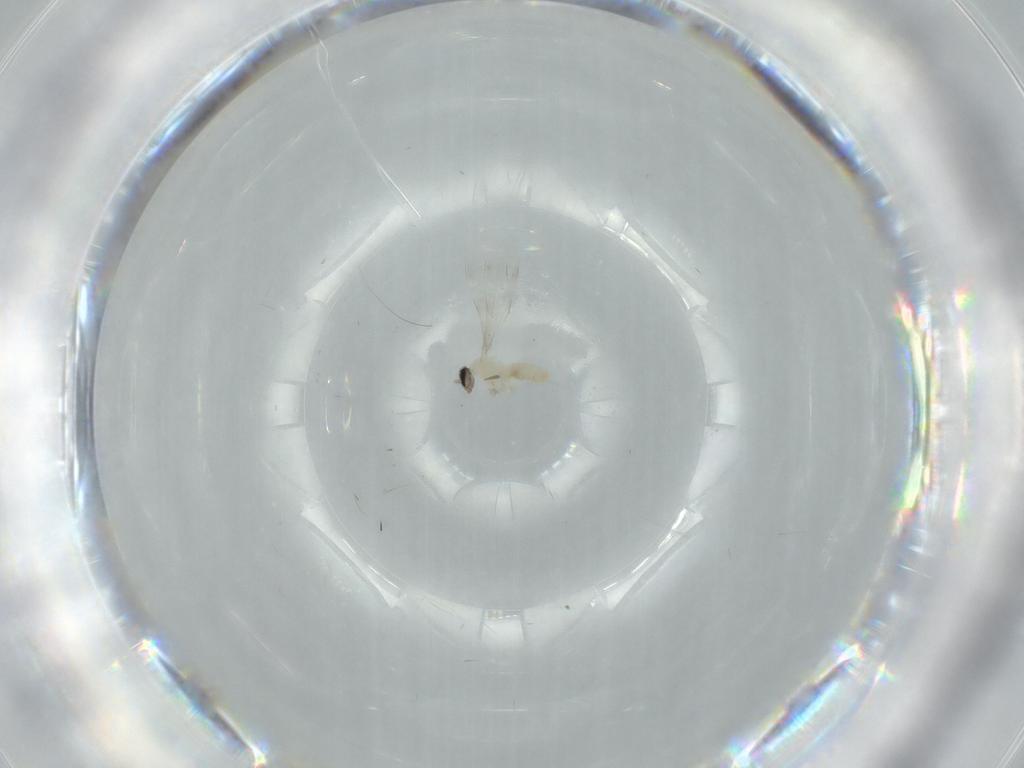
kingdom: Animalia
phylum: Arthropoda
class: Insecta
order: Diptera
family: Cecidomyiidae
